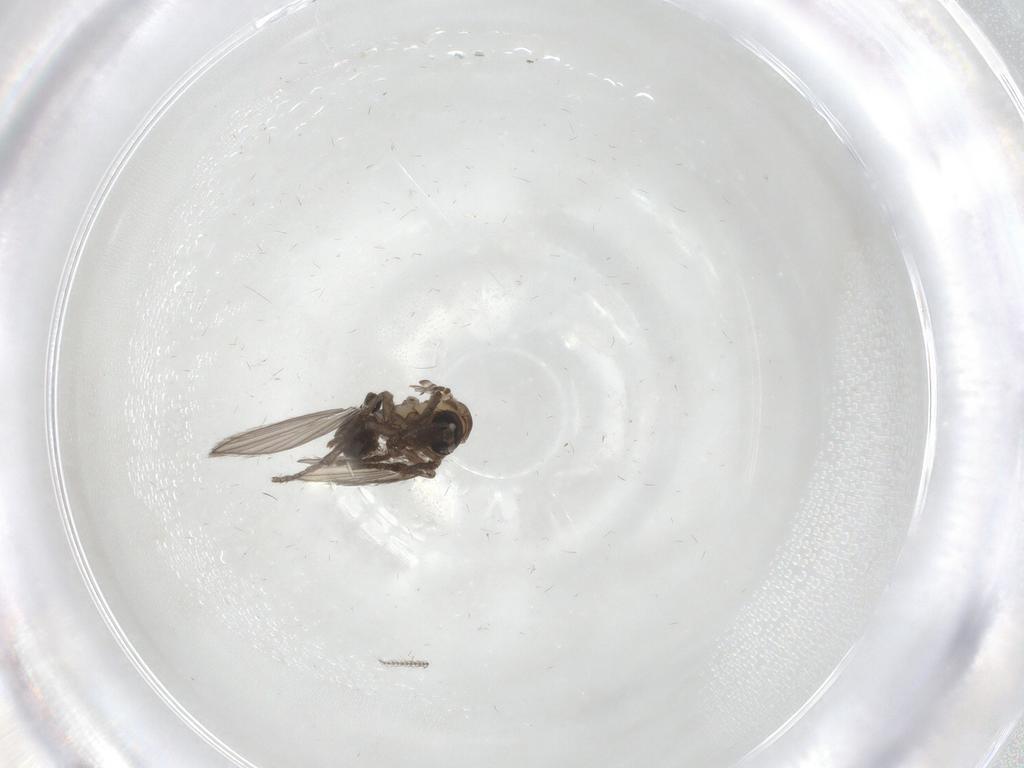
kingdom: Animalia
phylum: Arthropoda
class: Insecta
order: Diptera
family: Psychodidae
